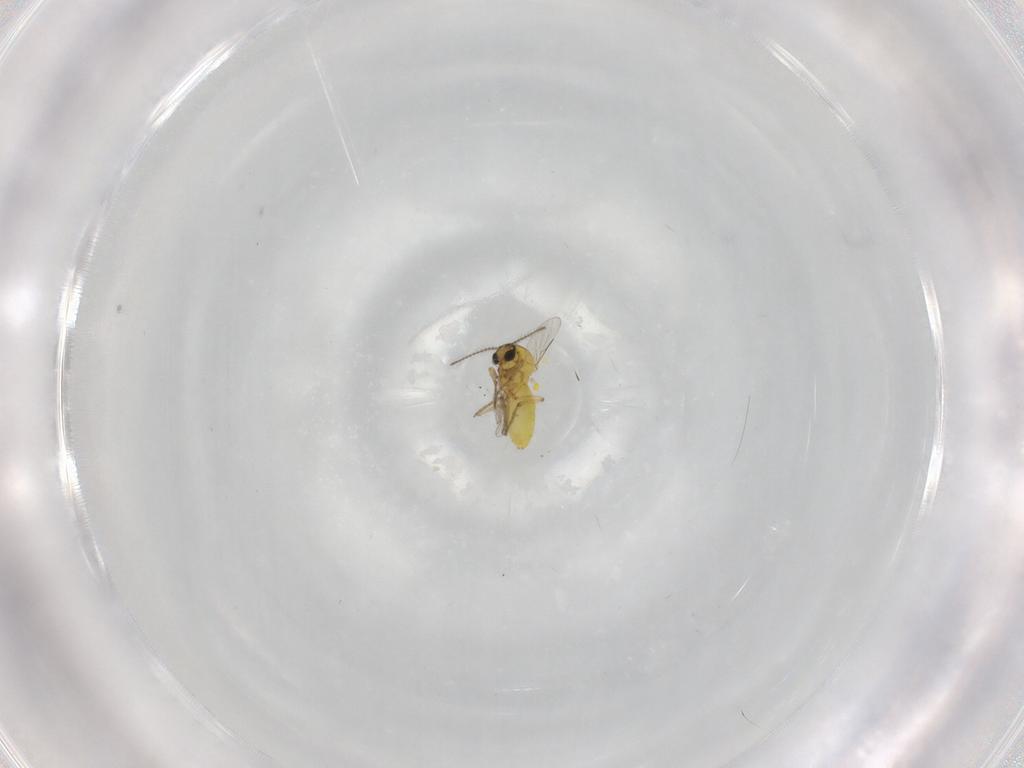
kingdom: Animalia
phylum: Arthropoda
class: Insecta
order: Diptera
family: Ceratopogonidae
